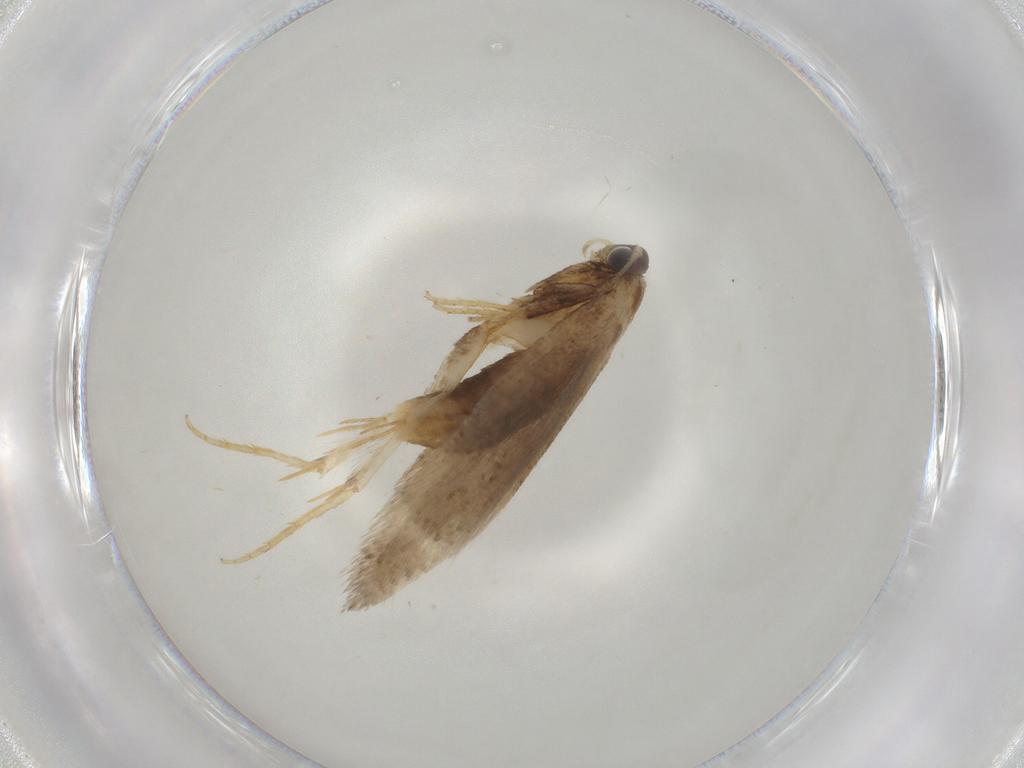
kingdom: Animalia
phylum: Arthropoda
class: Insecta
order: Lepidoptera
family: Nepticulidae
